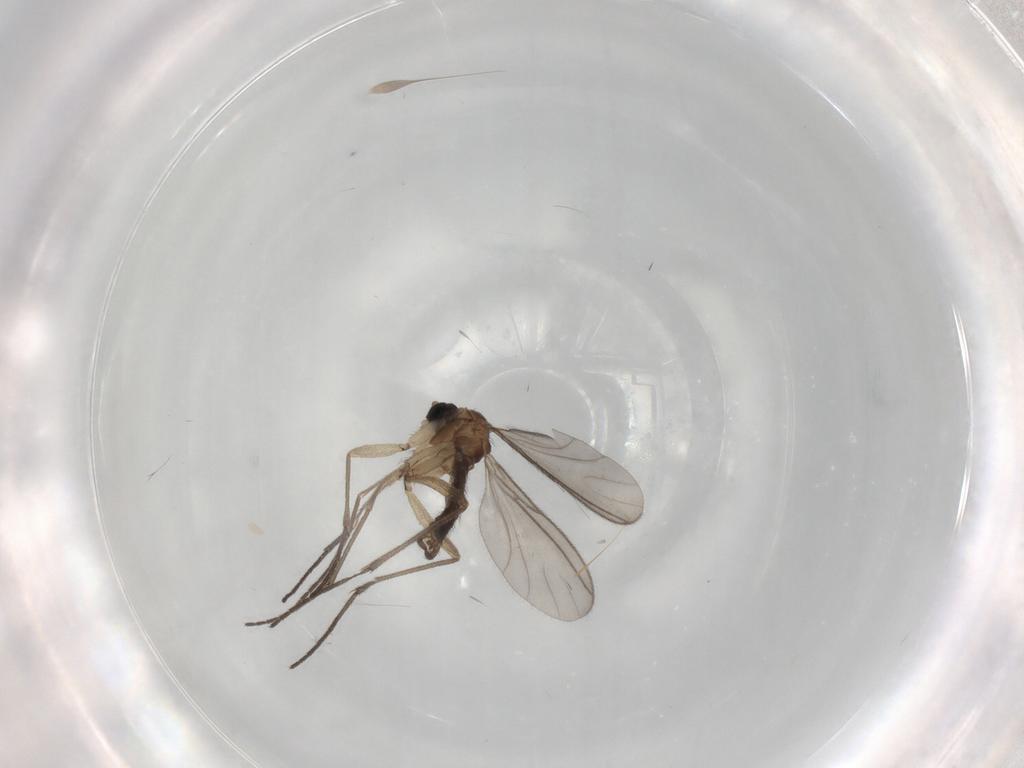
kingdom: Animalia
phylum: Arthropoda
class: Insecta
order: Diptera
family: Sciaridae
